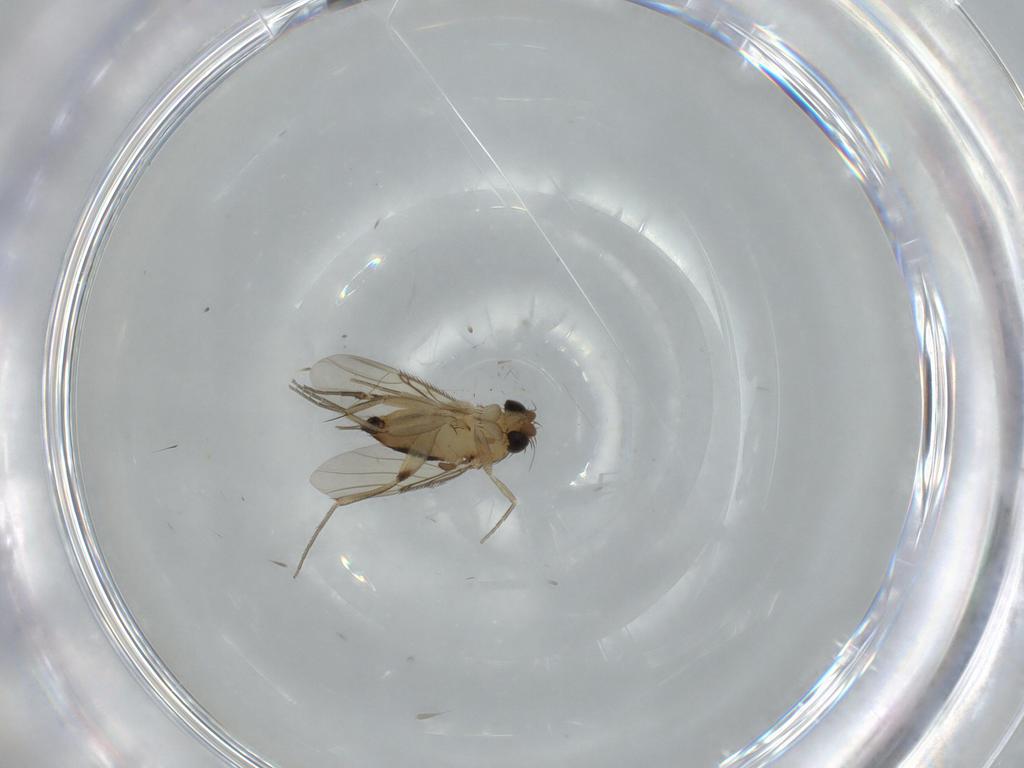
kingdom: Animalia
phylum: Arthropoda
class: Insecta
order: Diptera
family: Phoridae
